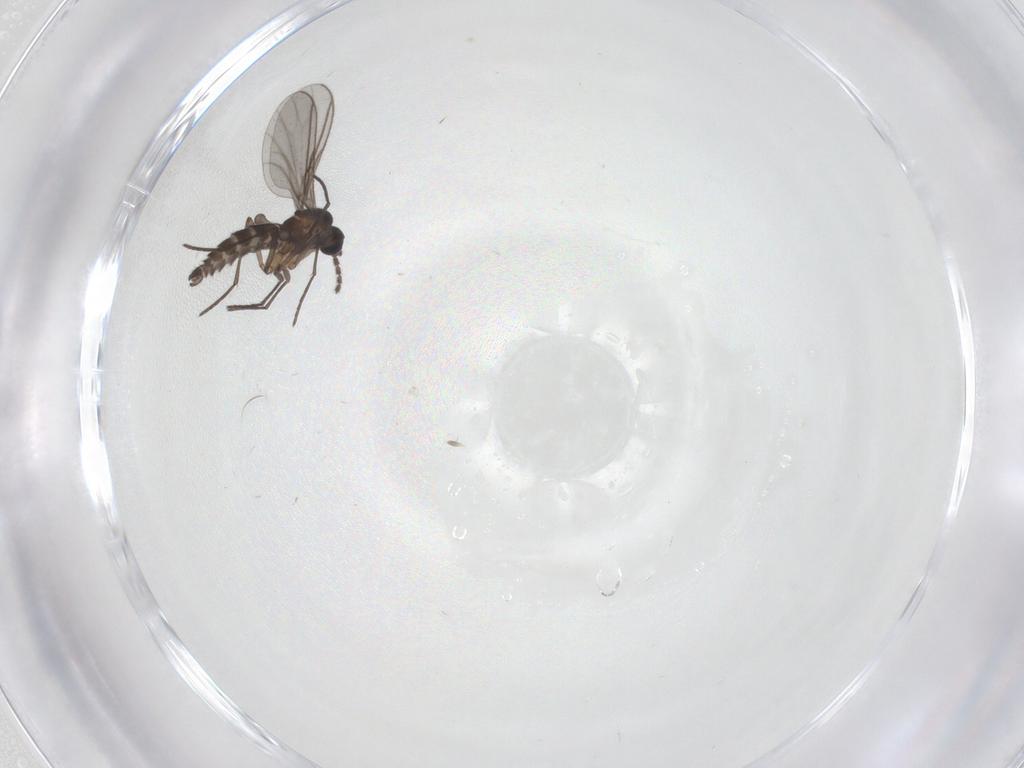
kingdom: Animalia
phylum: Arthropoda
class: Insecta
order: Diptera
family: Sciaridae
